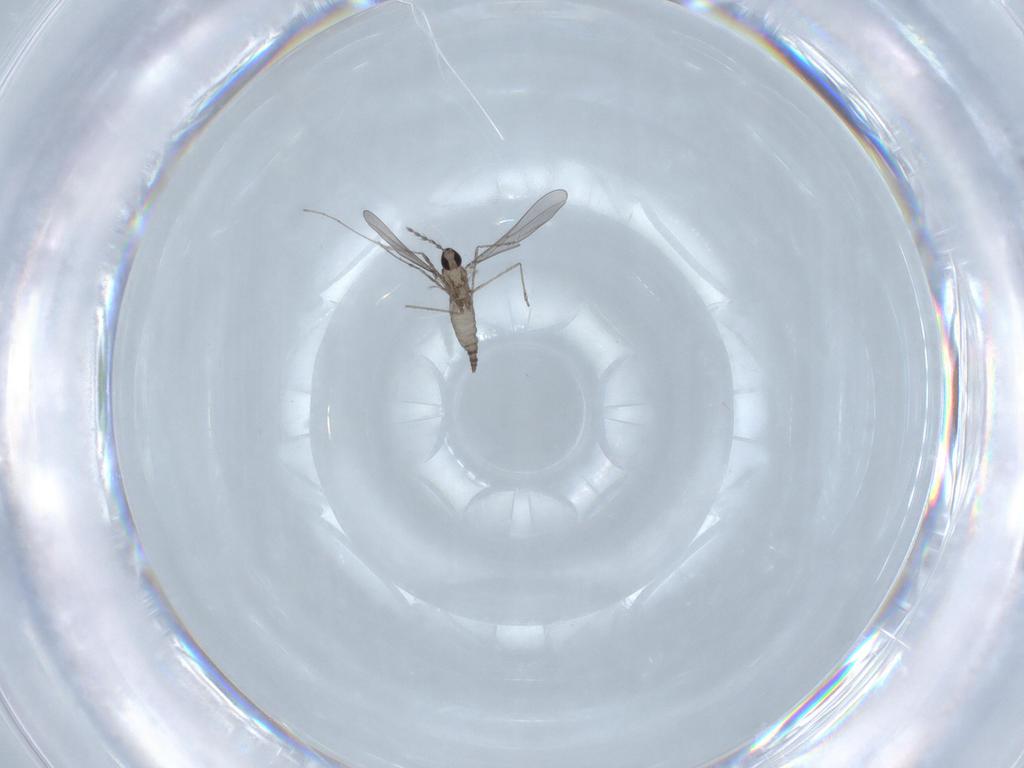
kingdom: Animalia
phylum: Arthropoda
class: Insecta
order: Diptera
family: Cecidomyiidae
